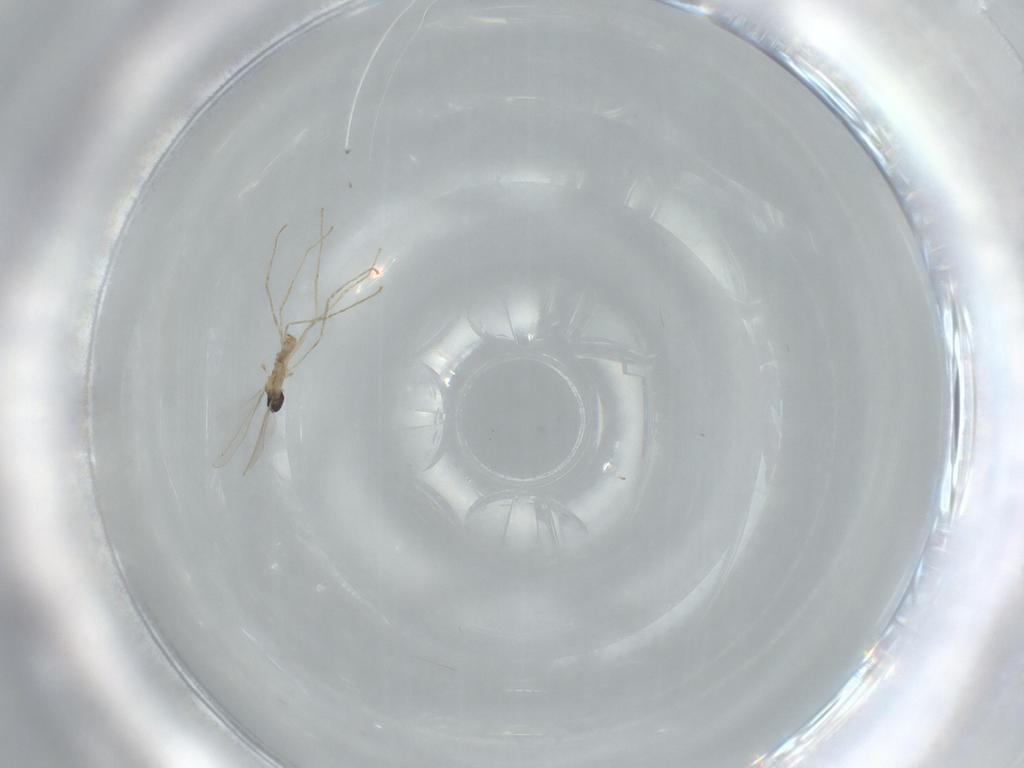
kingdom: Animalia
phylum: Arthropoda
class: Insecta
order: Diptera
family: Cecidomyiidae
